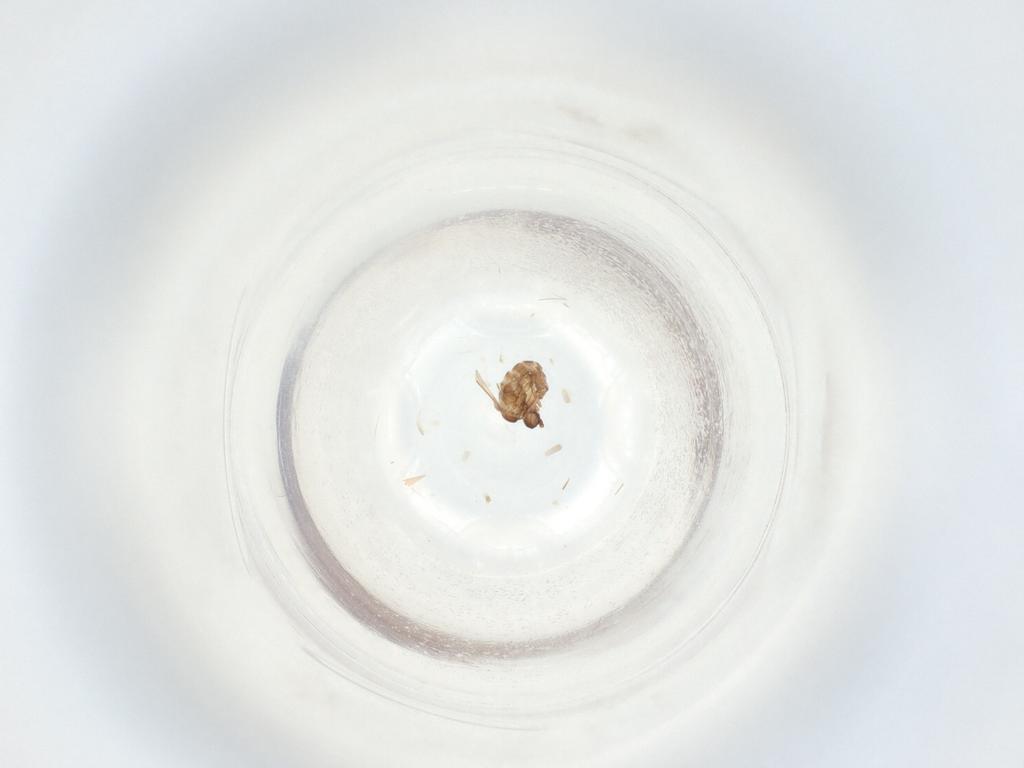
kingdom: Animalia
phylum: Arthropoda
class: Insecta
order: Diptera
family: Sciaridae
